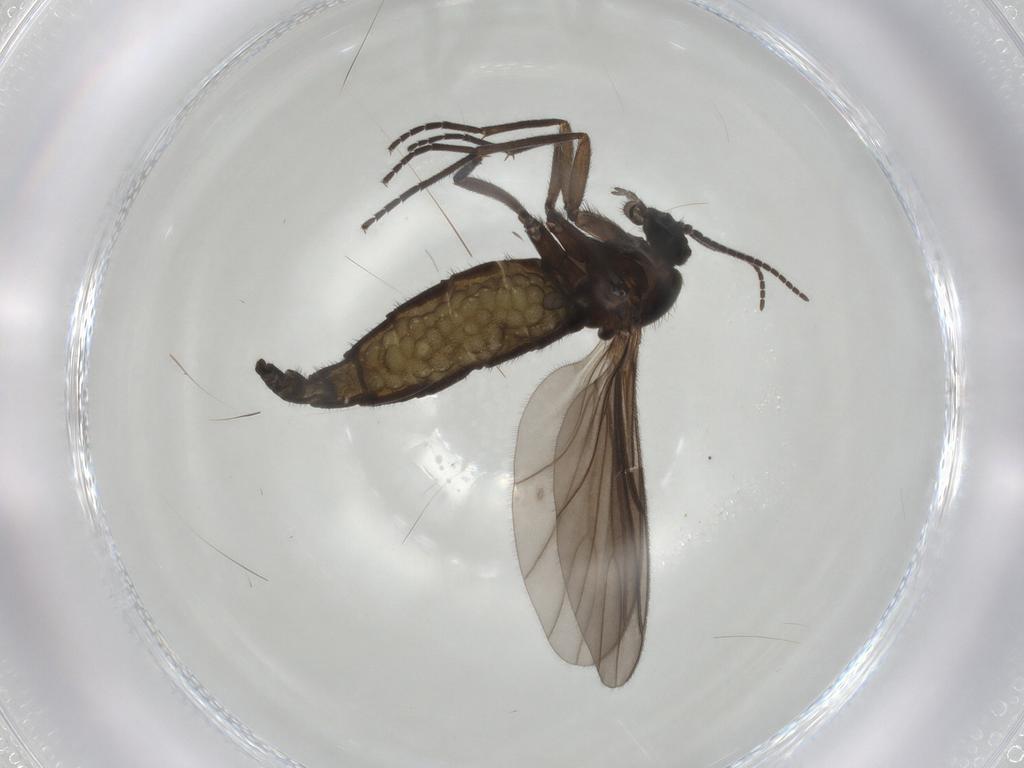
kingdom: Animalia
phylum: Arthropoda
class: Insecta
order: Diptera
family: Sciaridae
